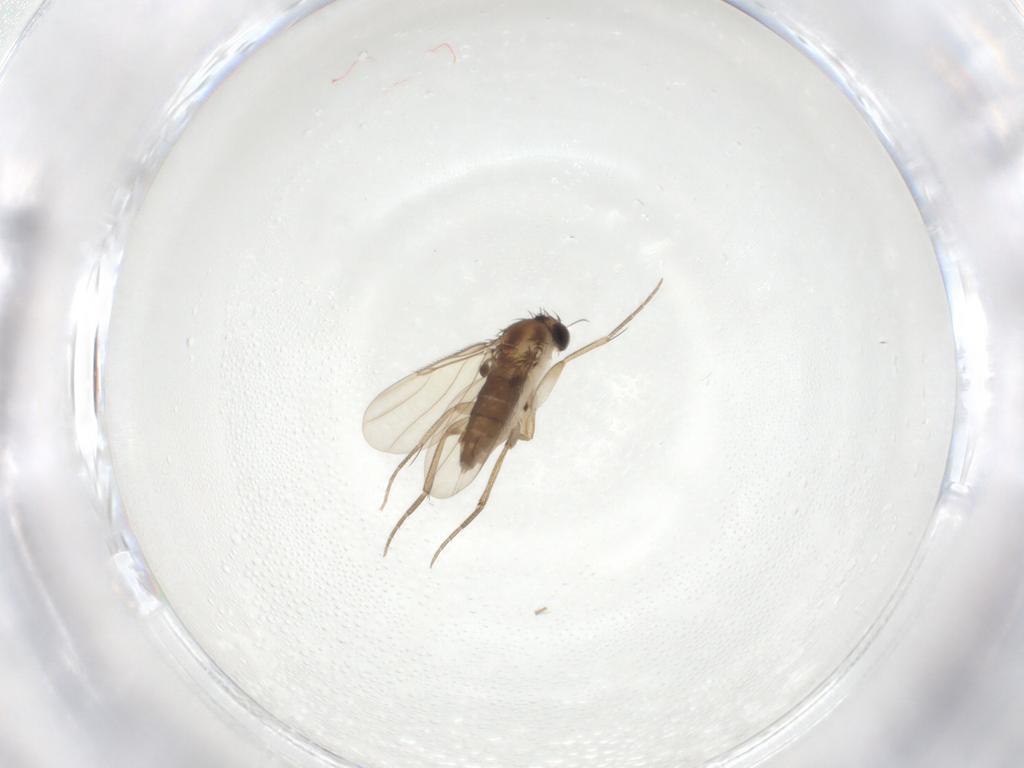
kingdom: Animalia
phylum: Arthropoda
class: Insecta
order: Diptera
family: Phoridae
